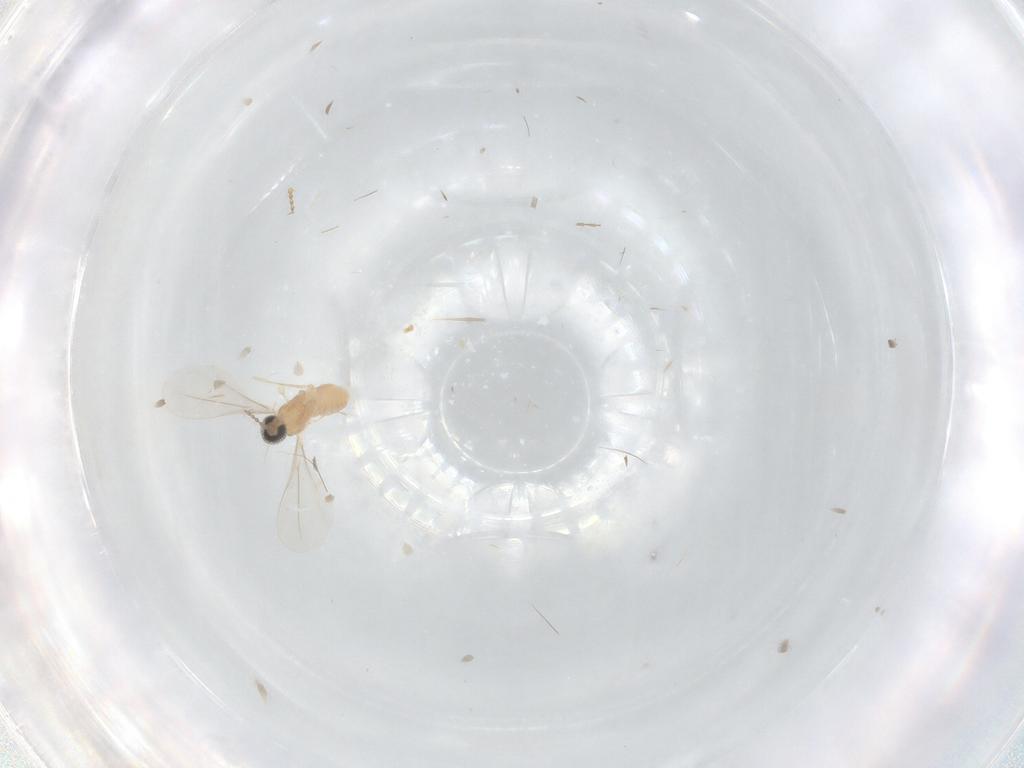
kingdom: Animalia
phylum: Arthropoda
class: Insecta
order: Diptera
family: Cecidomyiidae
